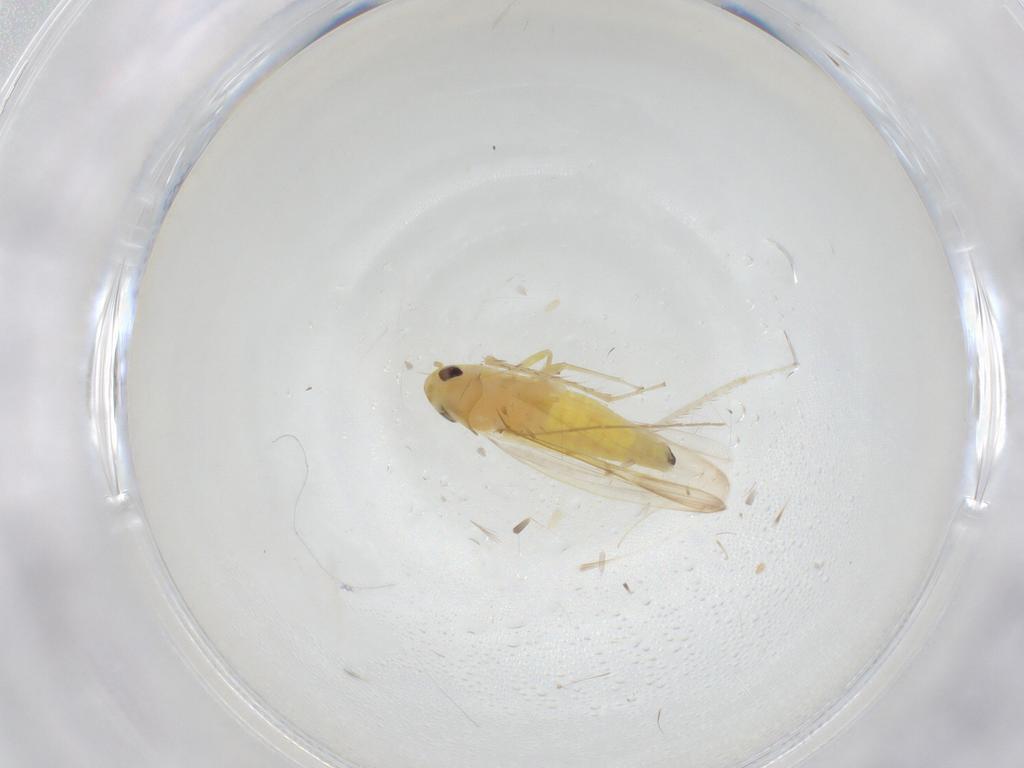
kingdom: Animalia
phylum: Arthropoda
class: Insecta
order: Hemiptera
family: Cicadellidae
